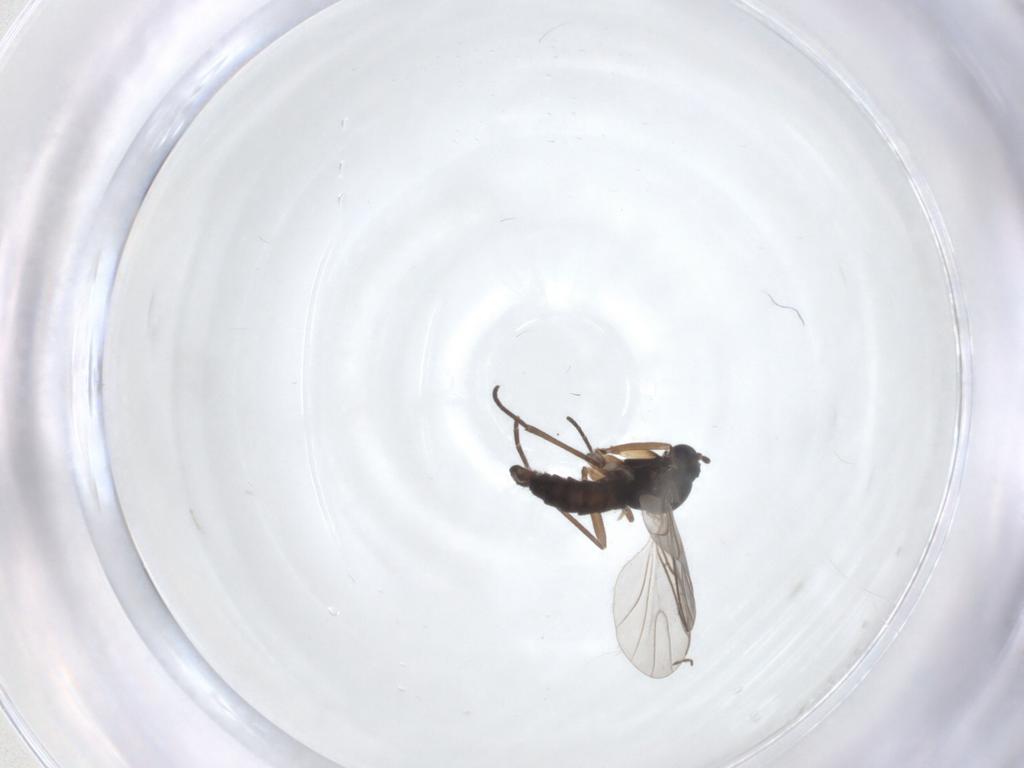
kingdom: Animalia
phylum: Arthropoda
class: Insecta
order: Diptera
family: Sciaridae
